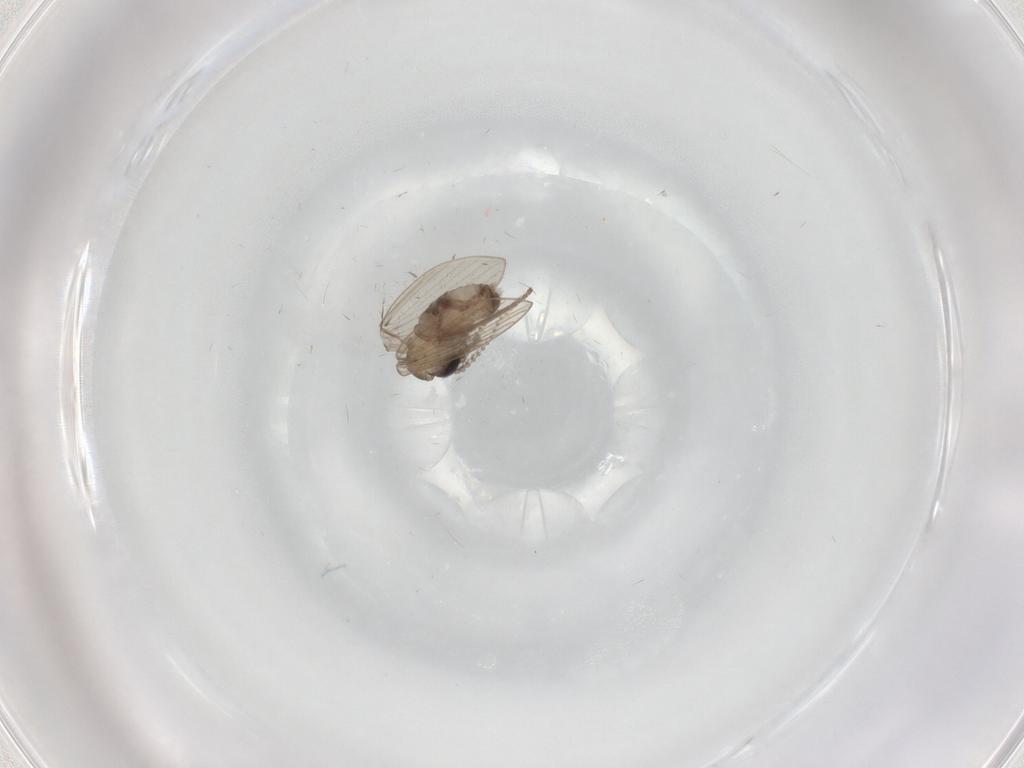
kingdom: Animalia
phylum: Arthropoda
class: Insecta
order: Diptera
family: Psychodidae
